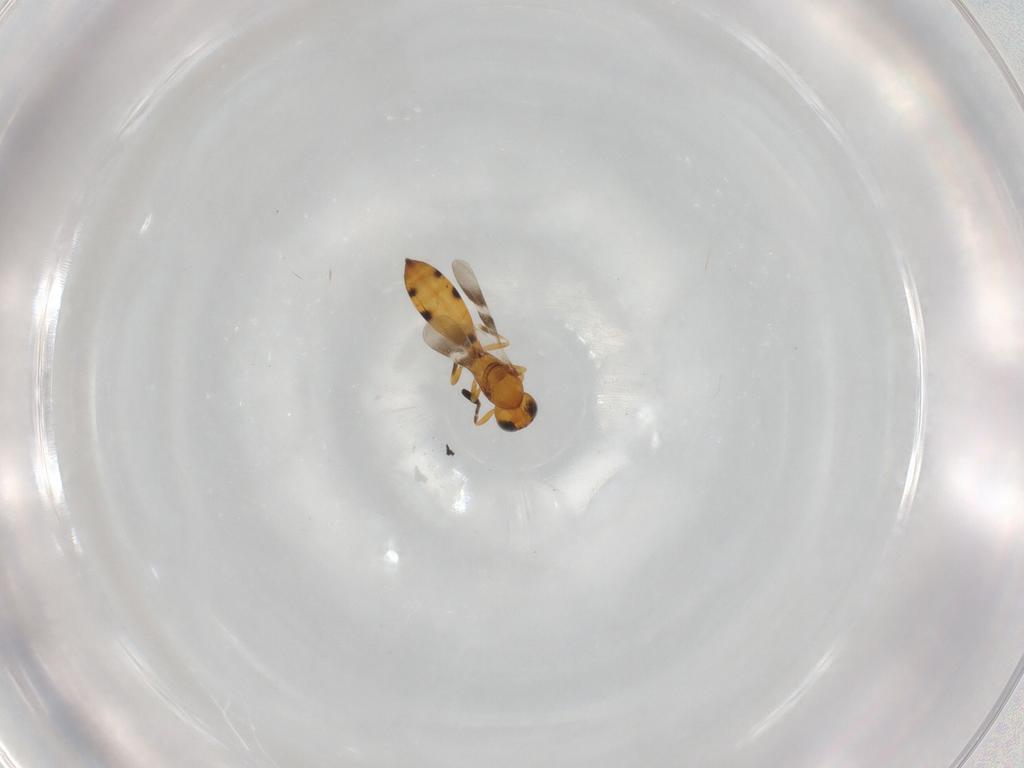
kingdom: Animalia
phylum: Arthropoda
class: Insecta
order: Hymenoptera
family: Scelionidae
